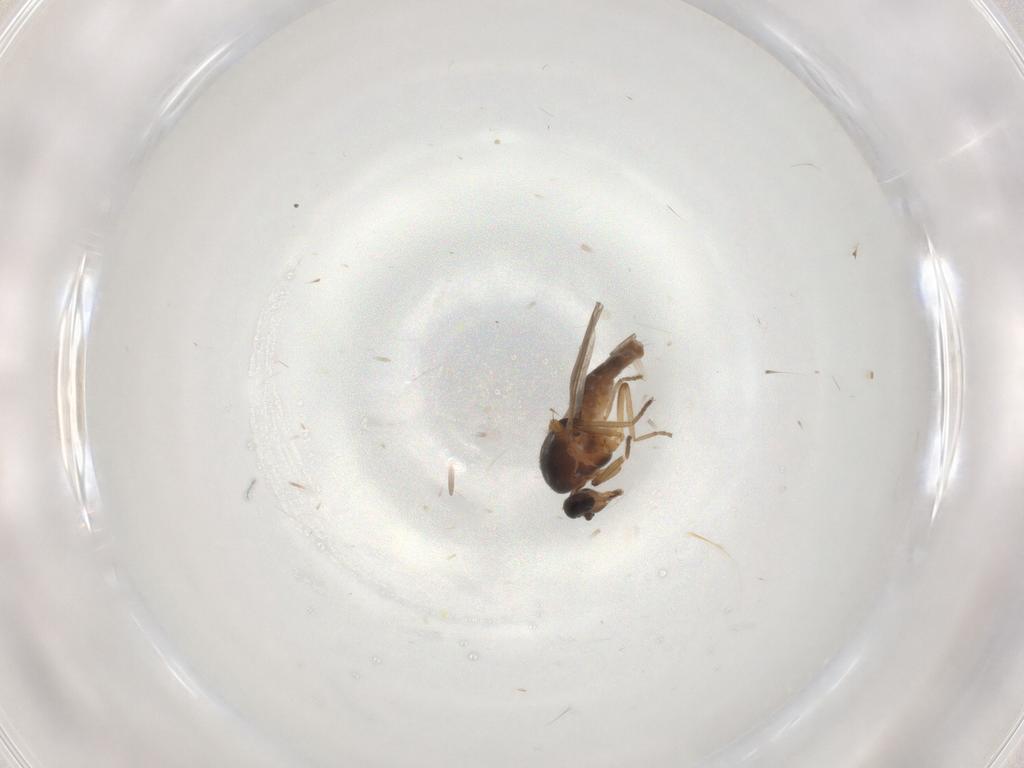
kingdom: Animalia
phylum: Arthropoda
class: Insecta
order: Diptera
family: Ceratopogonidae
